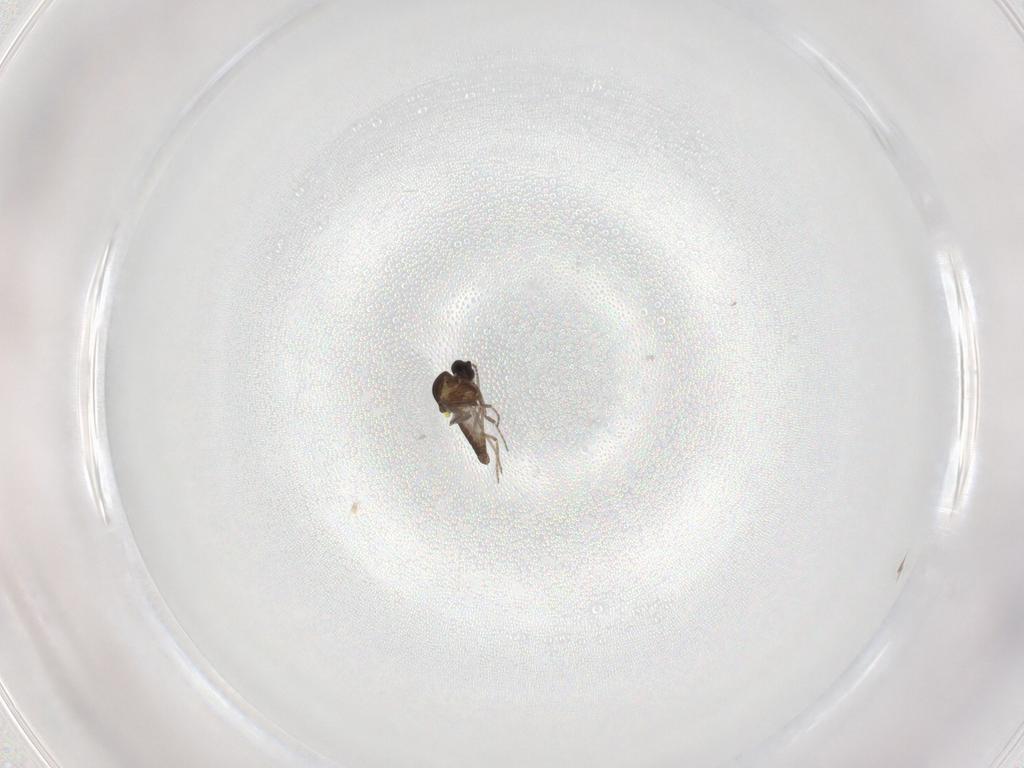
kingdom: Animalia
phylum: Arthropoda
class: Insecta
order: Diptera
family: Ceratopogonidae
